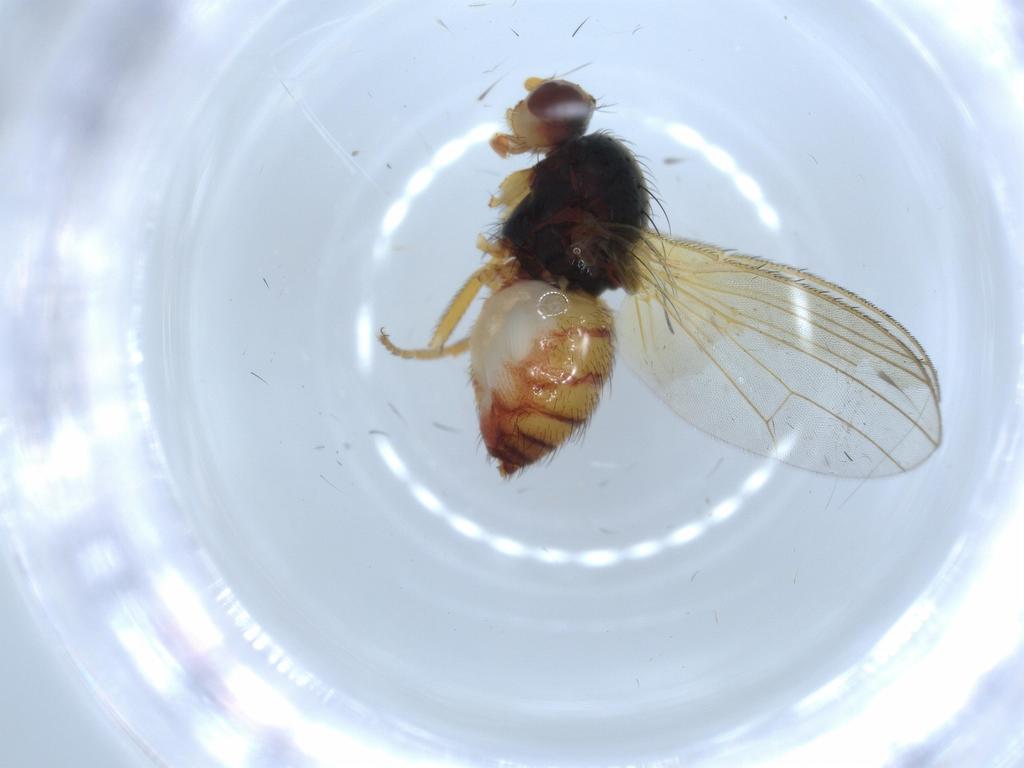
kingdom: Animalia
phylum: Arthropoda
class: Insecta
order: Diptera
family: Heleomyzidae
